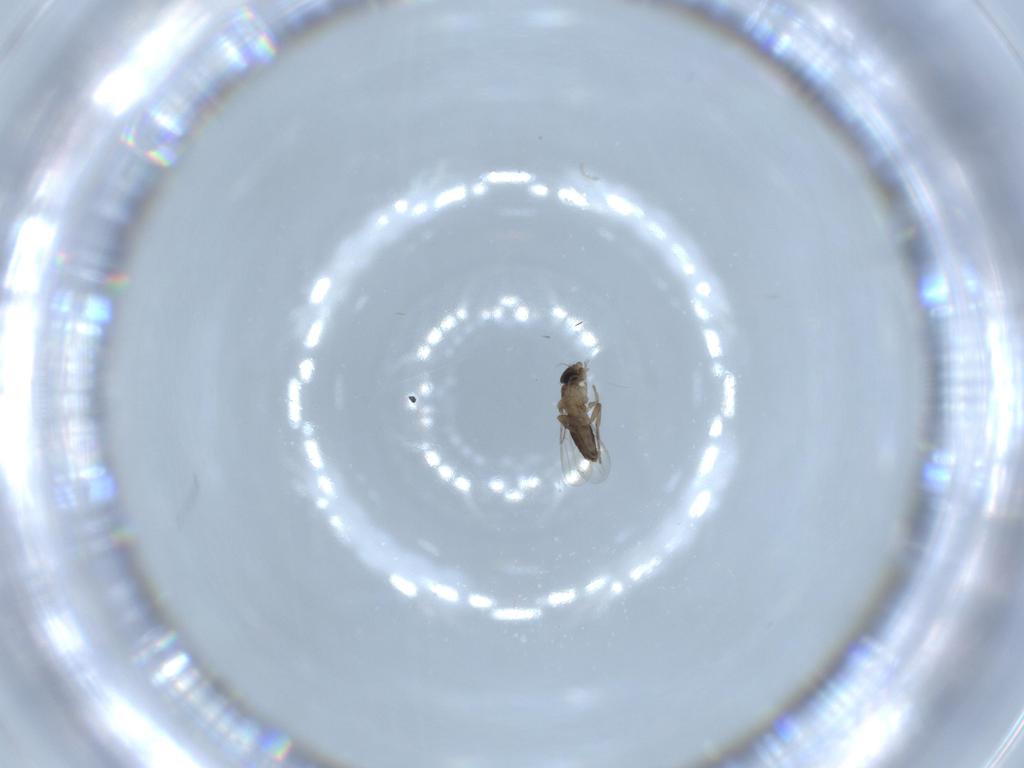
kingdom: Animalia
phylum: Arthropoda
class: Insecta
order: Diptera
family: Phoridae
